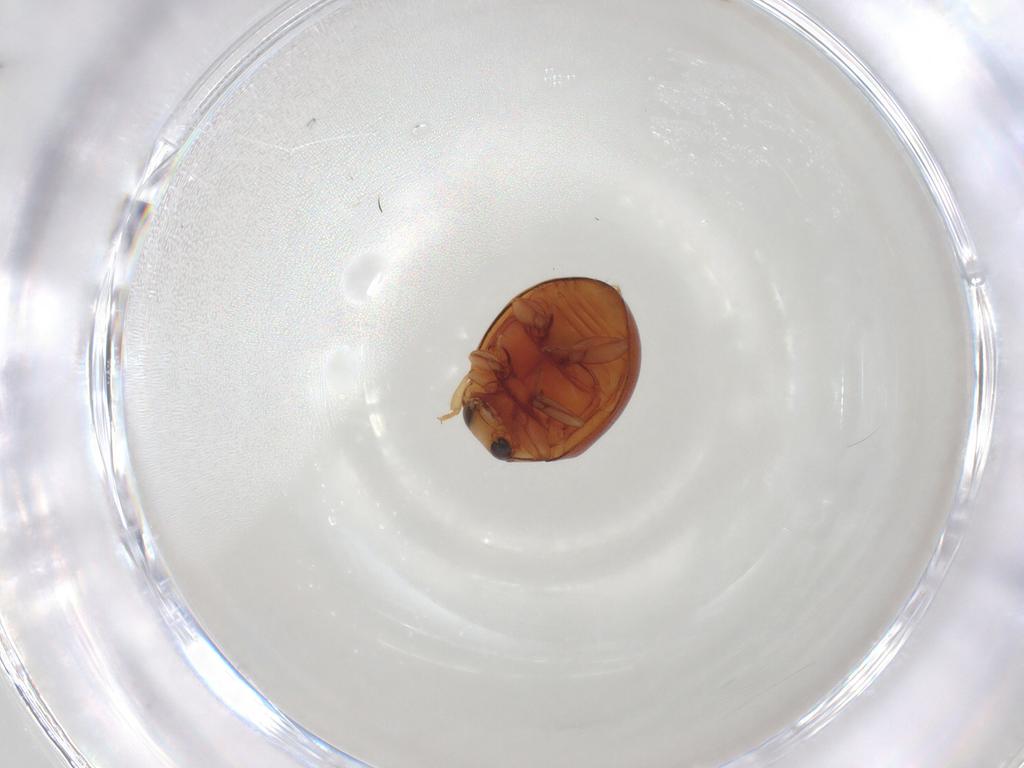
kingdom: Animalia
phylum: Arthropoda
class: Insecta
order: Coleoptera
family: Coccinellidae
